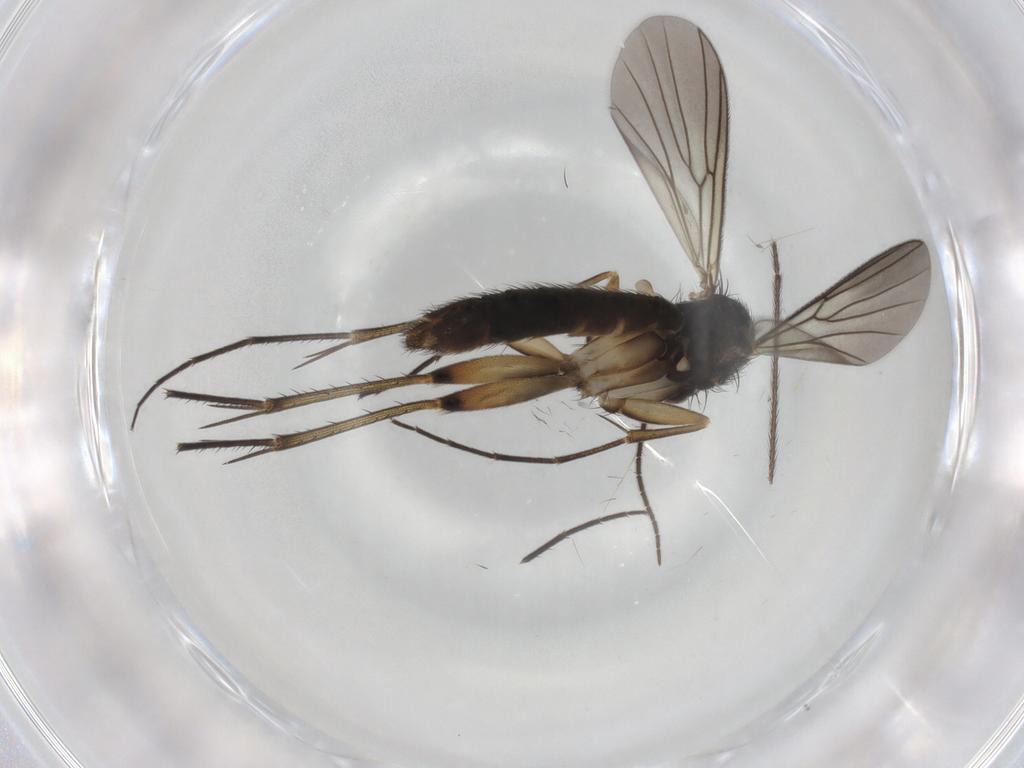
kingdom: Animalia
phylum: Arthropoda
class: Insecta
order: Diptera
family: Mycetophilidae
